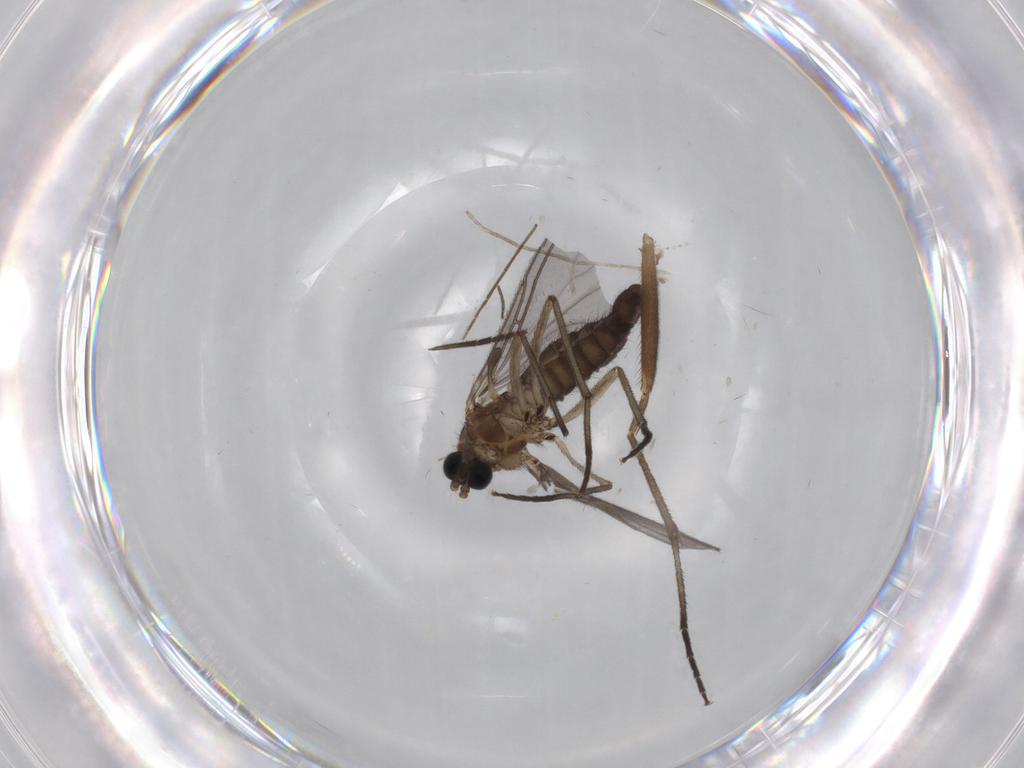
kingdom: Animalia
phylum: Arthropoda
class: Insecta
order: Diptera
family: Sciaridae
